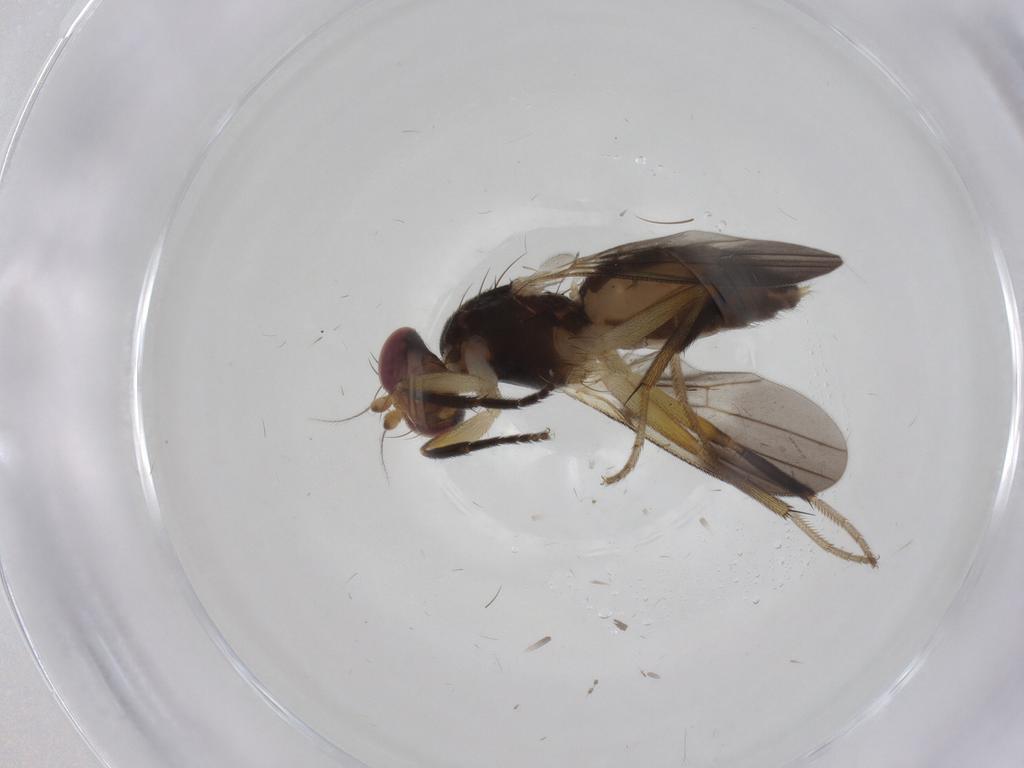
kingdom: Animalia
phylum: Arthropoda
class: Insecta
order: Diptera
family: Clusiidae
